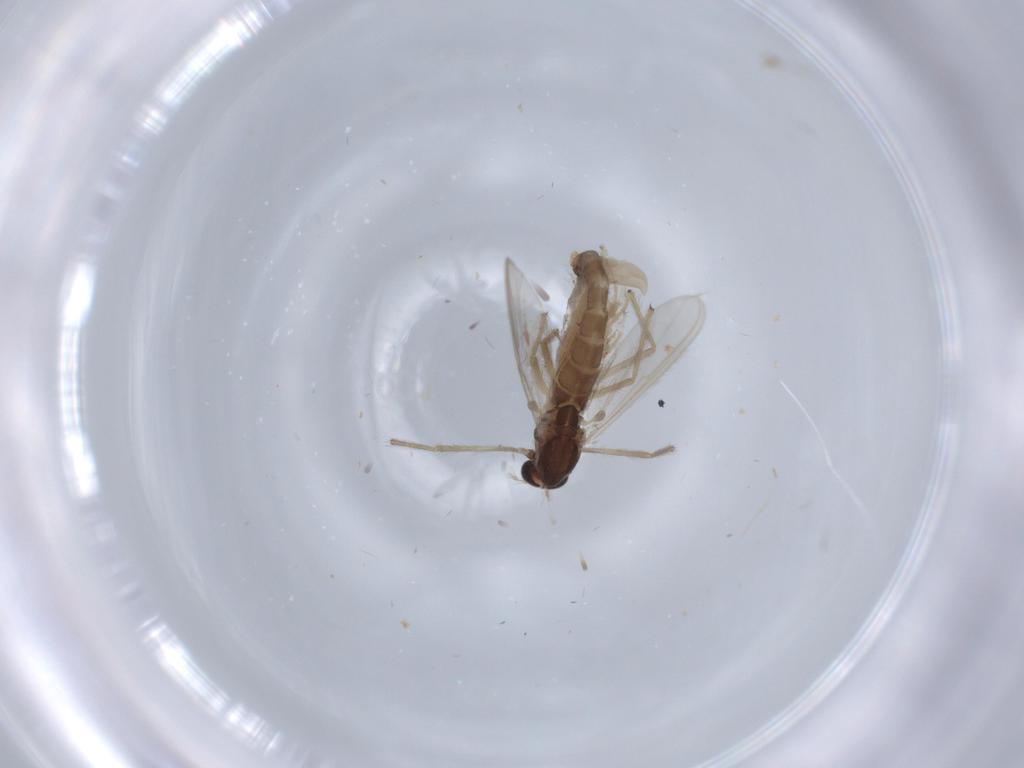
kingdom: Animalia
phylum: Arthropoda
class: Insecta
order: Diptera
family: Chironomidae
